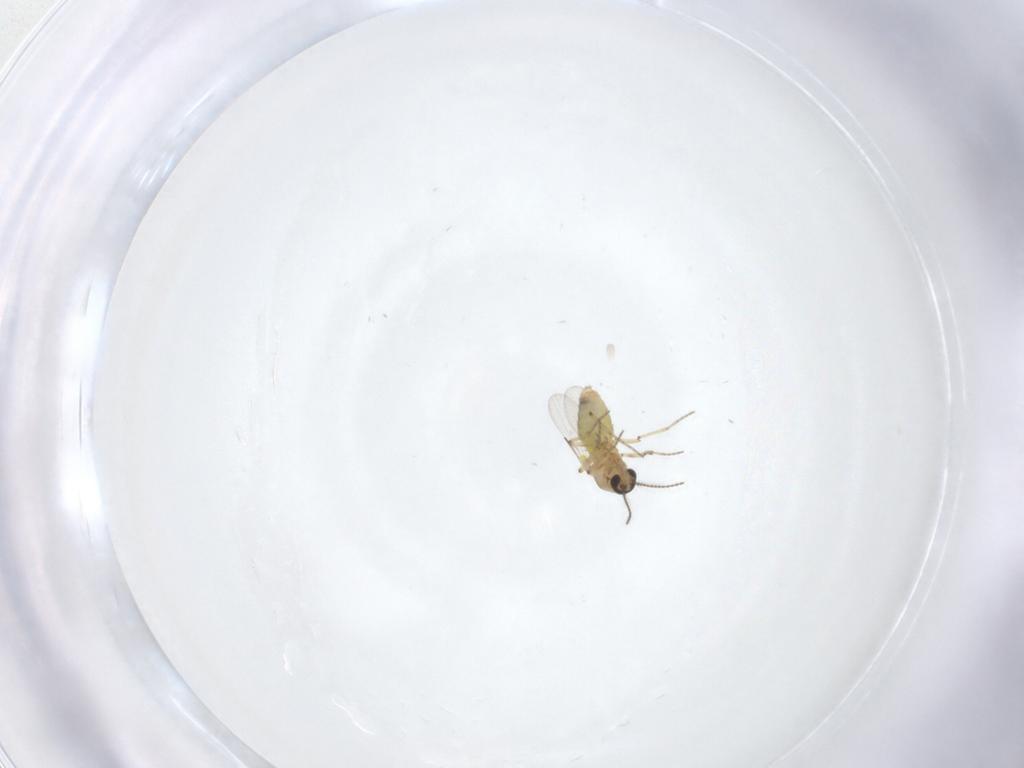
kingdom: Animalia
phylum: Arthropoda
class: Insecta
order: Diptera
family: Ceratopogonidae
